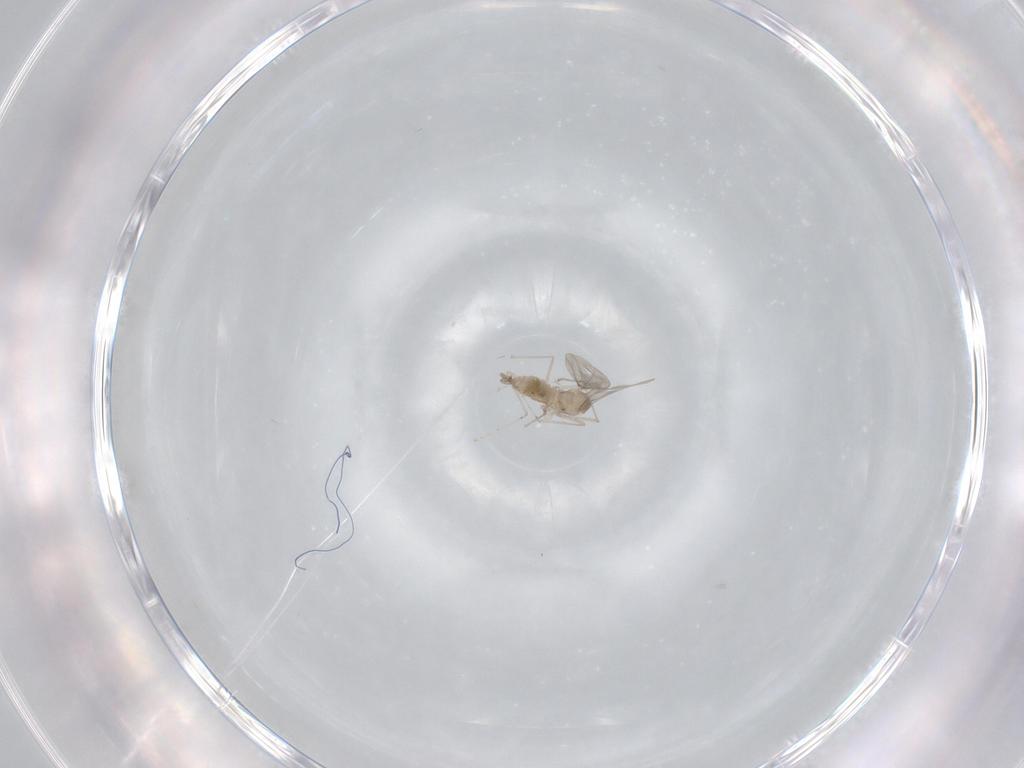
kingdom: Animalia
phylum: Arthropoda
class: Insecta
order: Diptera
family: Cecidomyiidae
